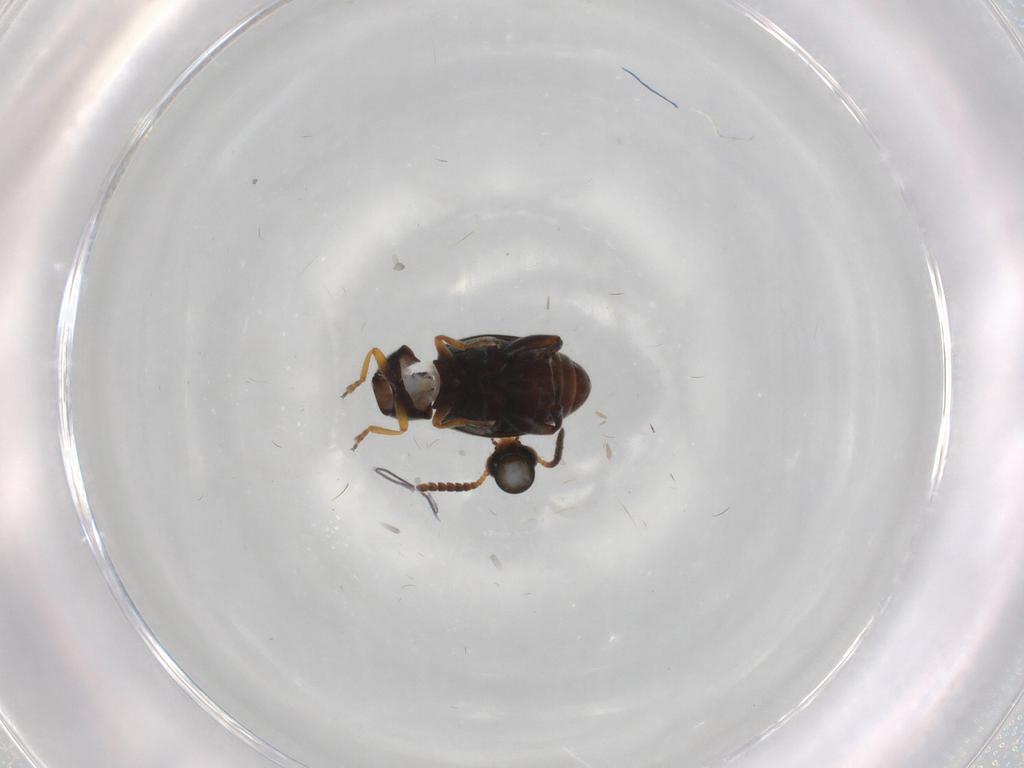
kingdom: Animalia
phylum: Arthropoda
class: Insecta
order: Coleoptera
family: Chrysomelidae
